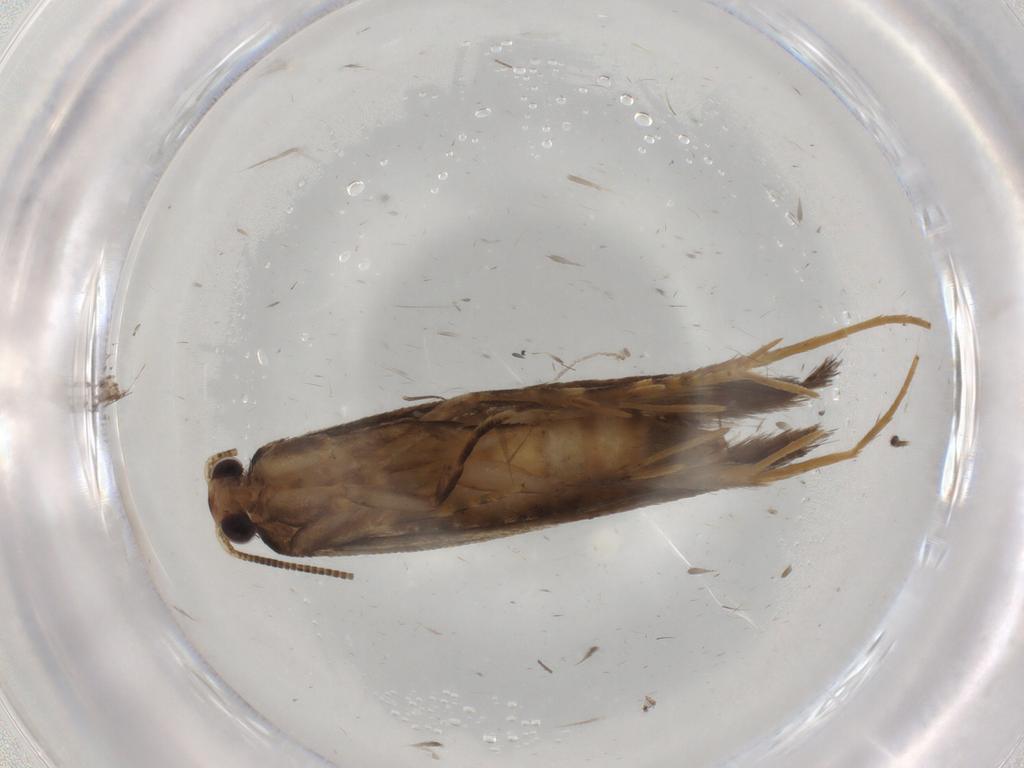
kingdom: Animalia
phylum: Arthropoda
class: Insecta
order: Lepidoptera
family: Tineidae
